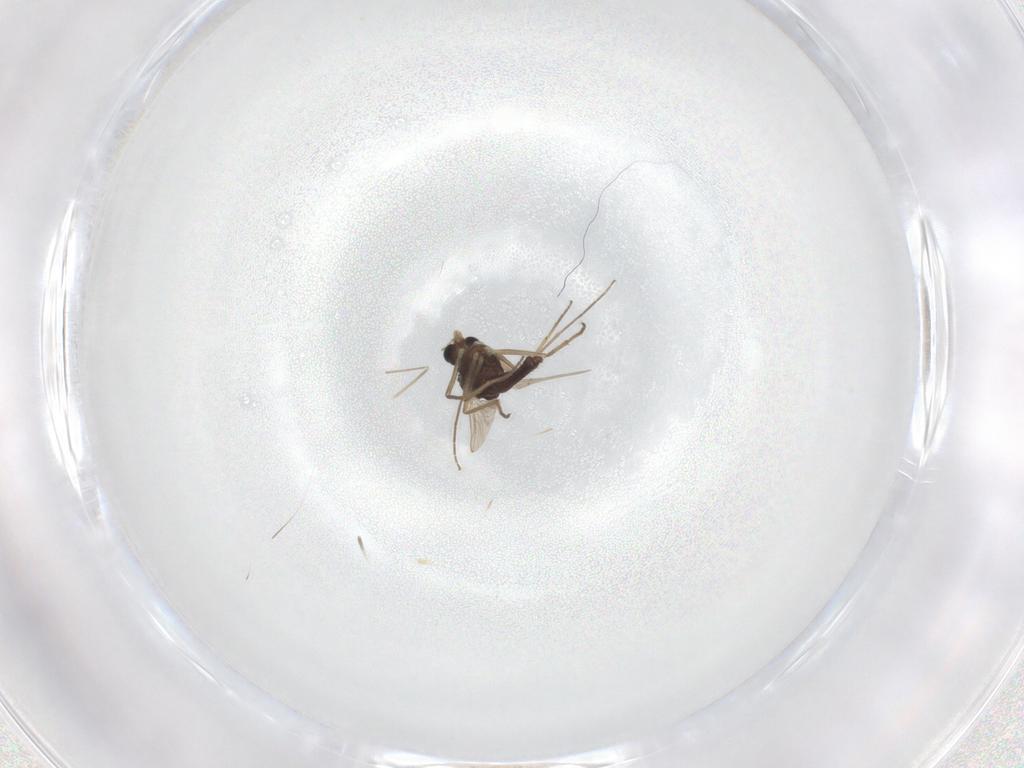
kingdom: Animalia
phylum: Arthropoda
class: Insecta
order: Diptera
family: Chironomidae
